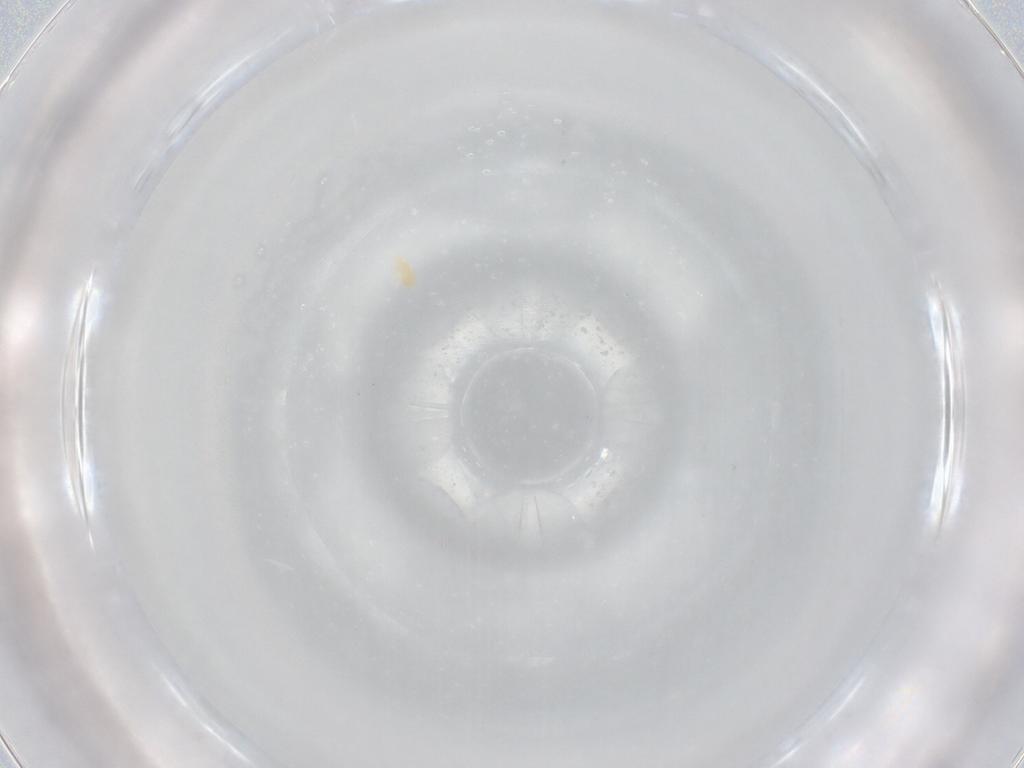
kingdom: Animalia
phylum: Arthropoda
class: Arachnida
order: Trombidiformes
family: Eupodidae
